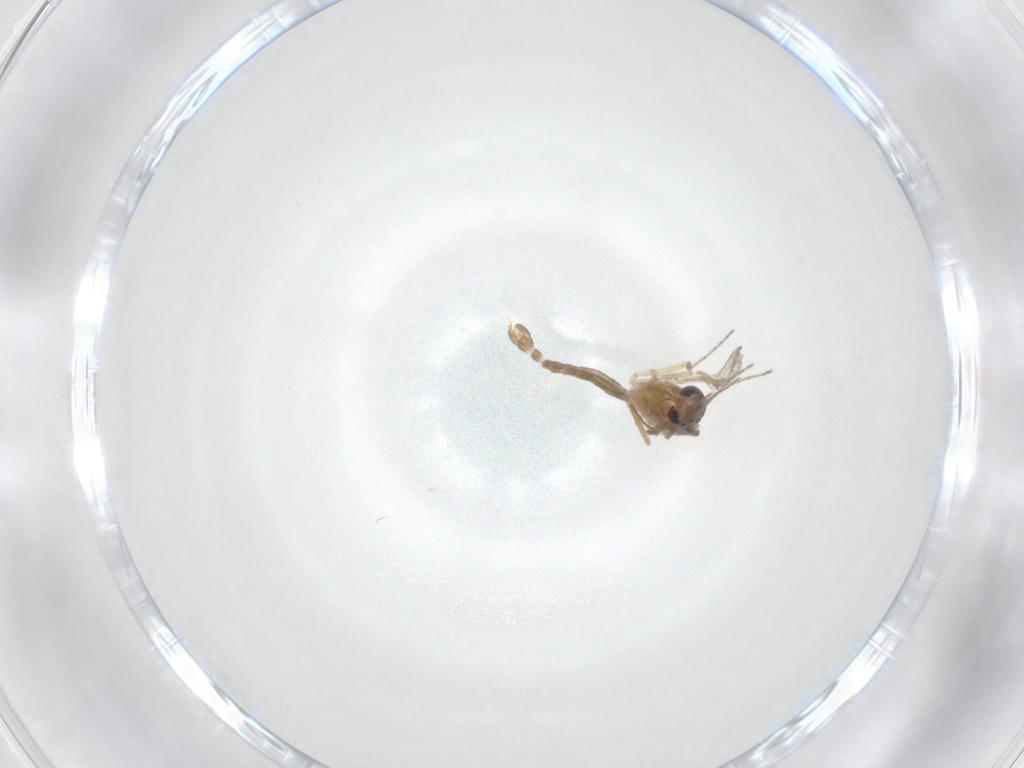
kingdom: Animalia
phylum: Arthropoda
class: Insecta
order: Diptera
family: Ceratopogonidae
